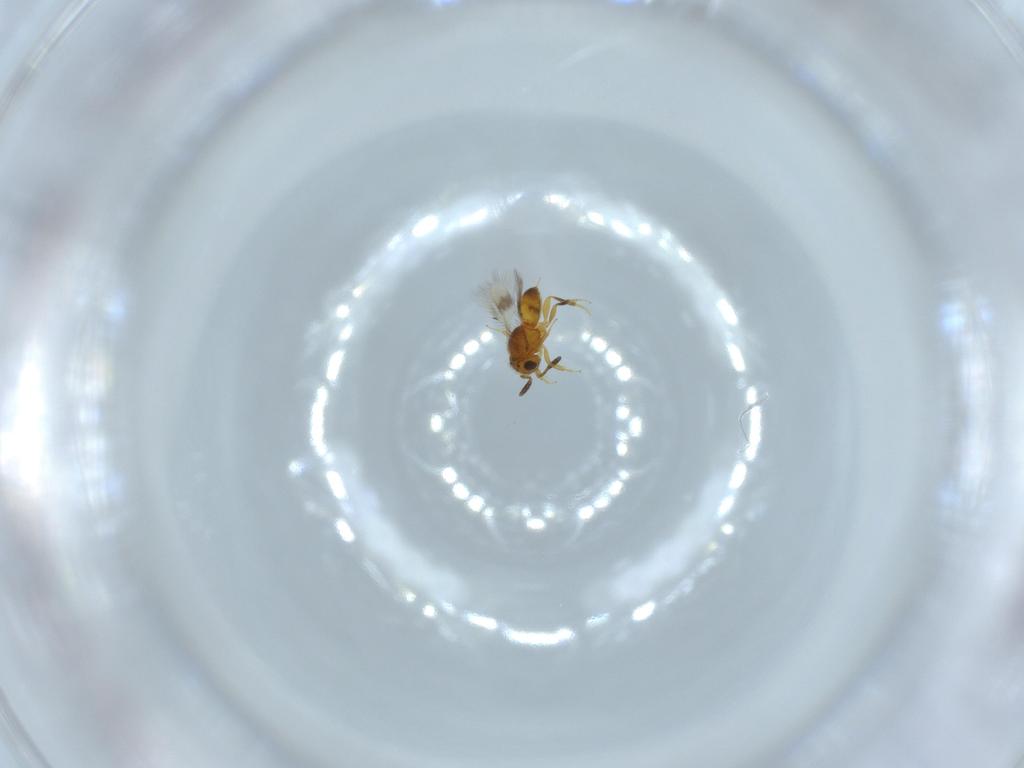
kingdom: Animalia
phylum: Arthropoda
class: Insecta
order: Hymenoptera
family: Scelionidae
